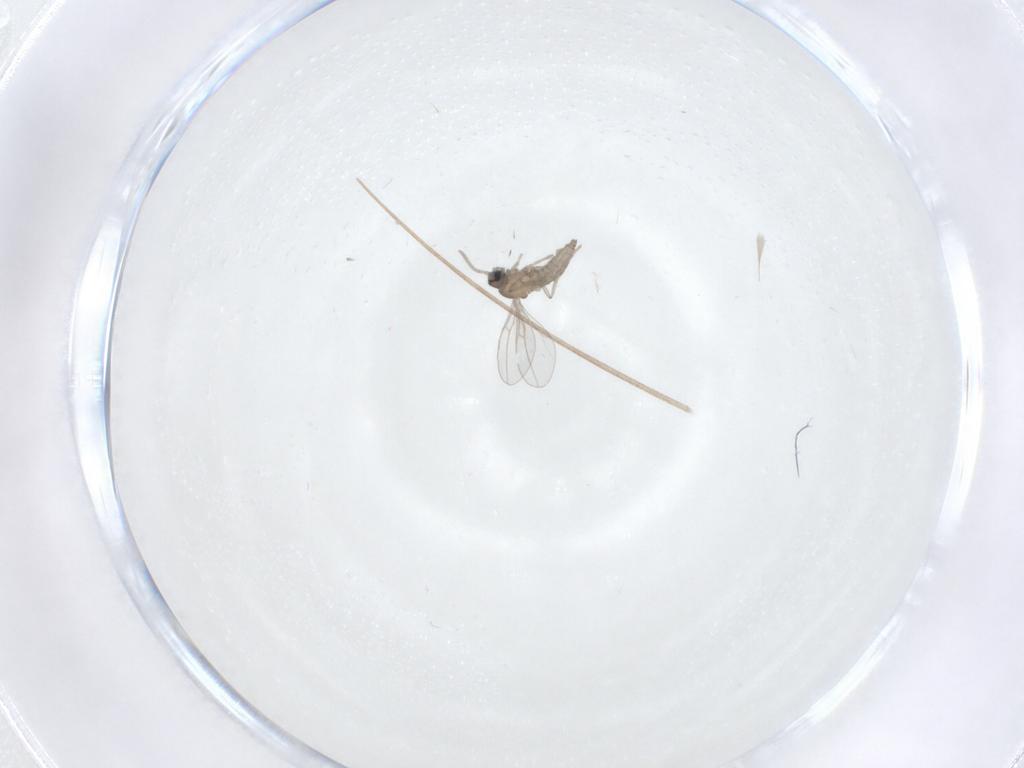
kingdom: Animalia
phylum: Arthropoda
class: Insecta
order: Diptera
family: Cecidomyiidae
